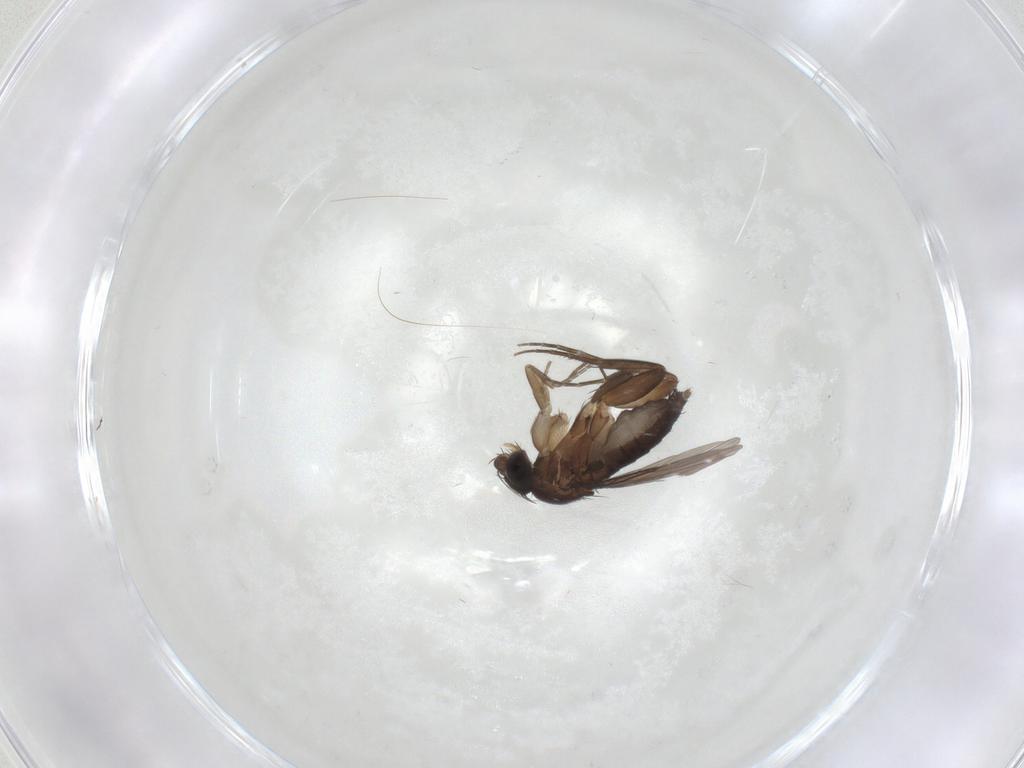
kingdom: Animalia
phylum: Arthropoda
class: Insecta
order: Diptera
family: Phoridae
